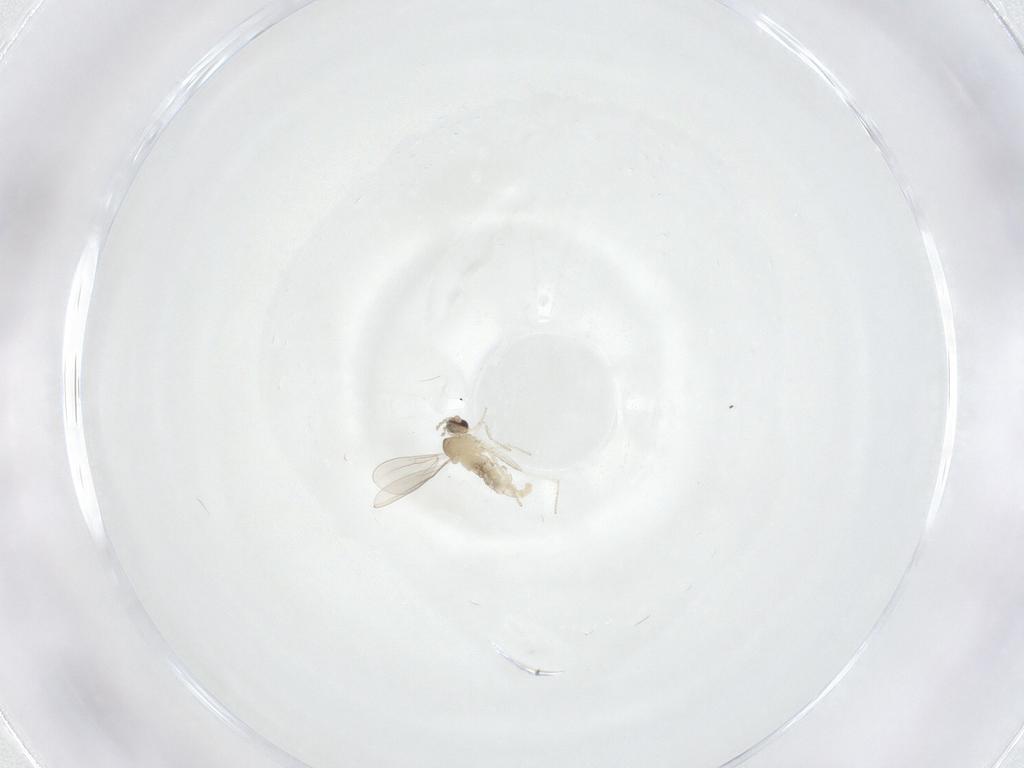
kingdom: Animalia
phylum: Arthropoda
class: Insecta
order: Diptera
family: Cecidomyiidae
